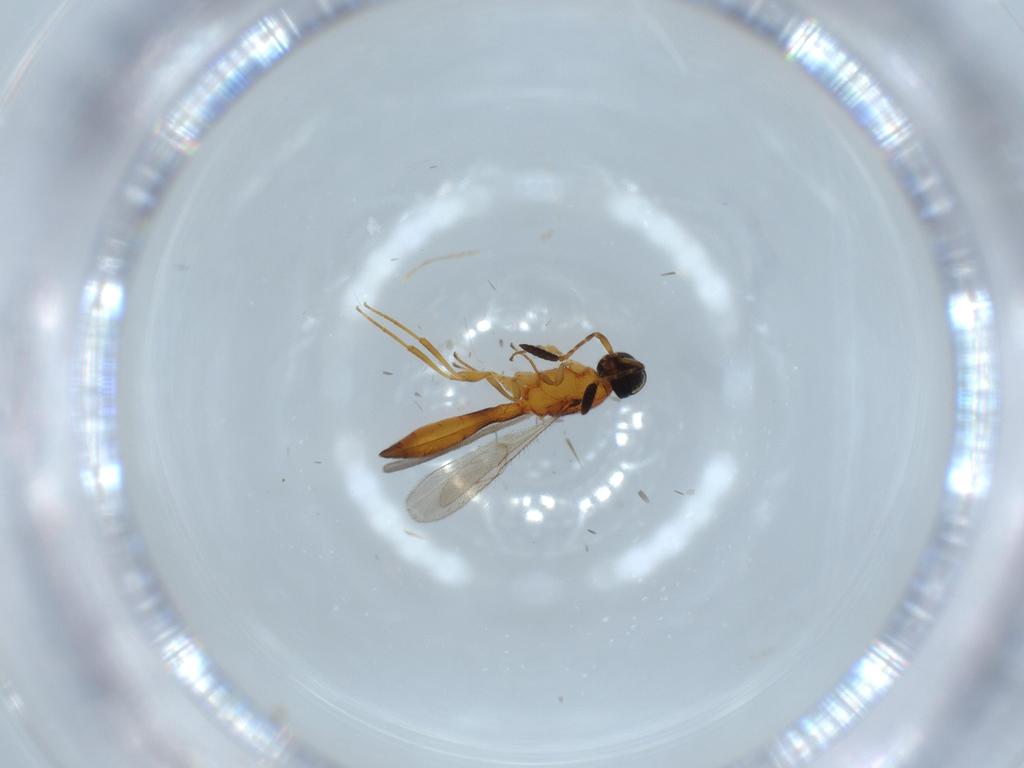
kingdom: Animalia
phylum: Arthropoda
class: Insecta
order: Hymenoptera
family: Scelionidae
